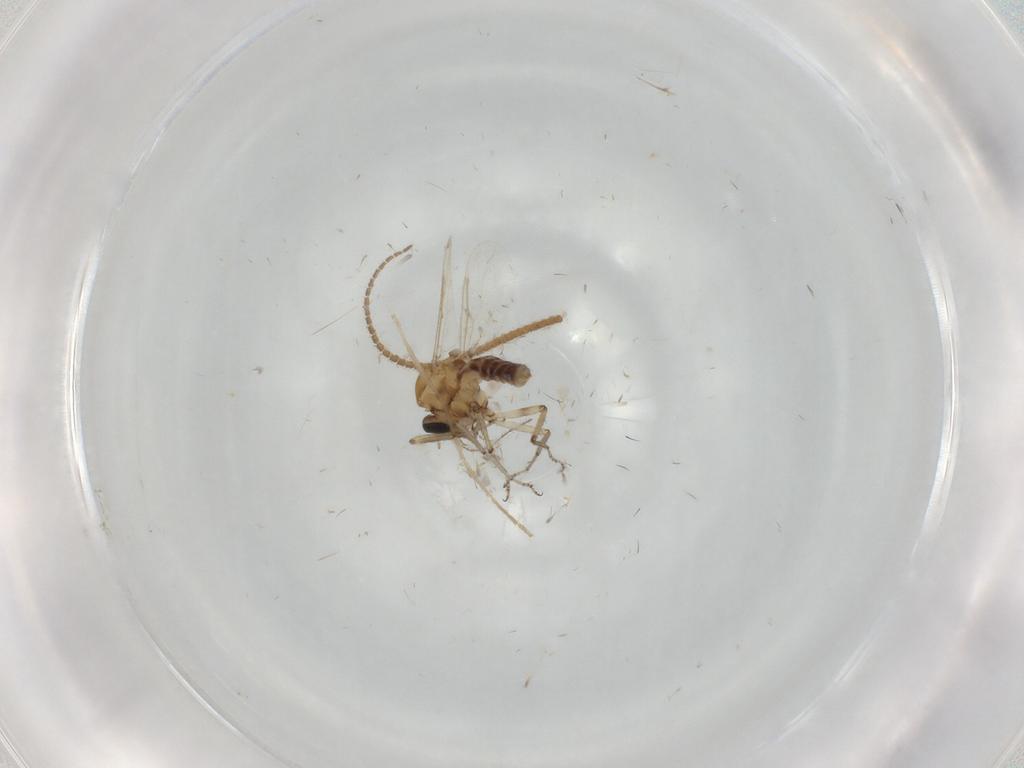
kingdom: Animalia
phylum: Arthropoda
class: Insecta
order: Diptera
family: Ceratopogonidae
